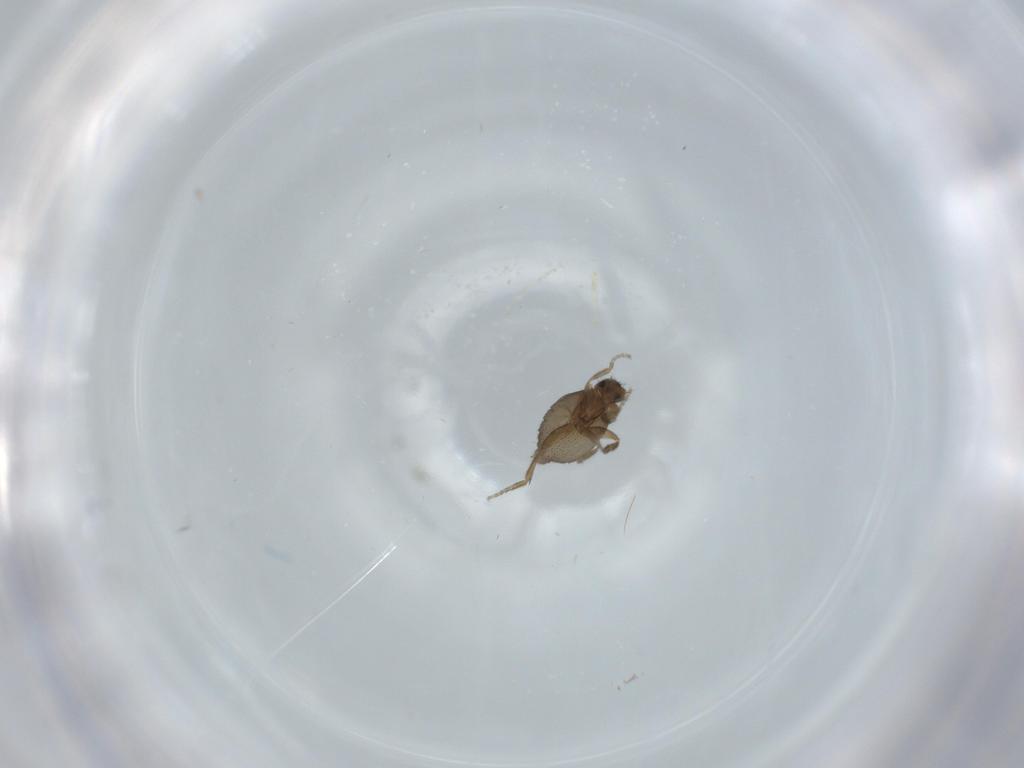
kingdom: Animalia
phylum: Arthropoda
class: Insecta
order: Diptera
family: Phoridae
